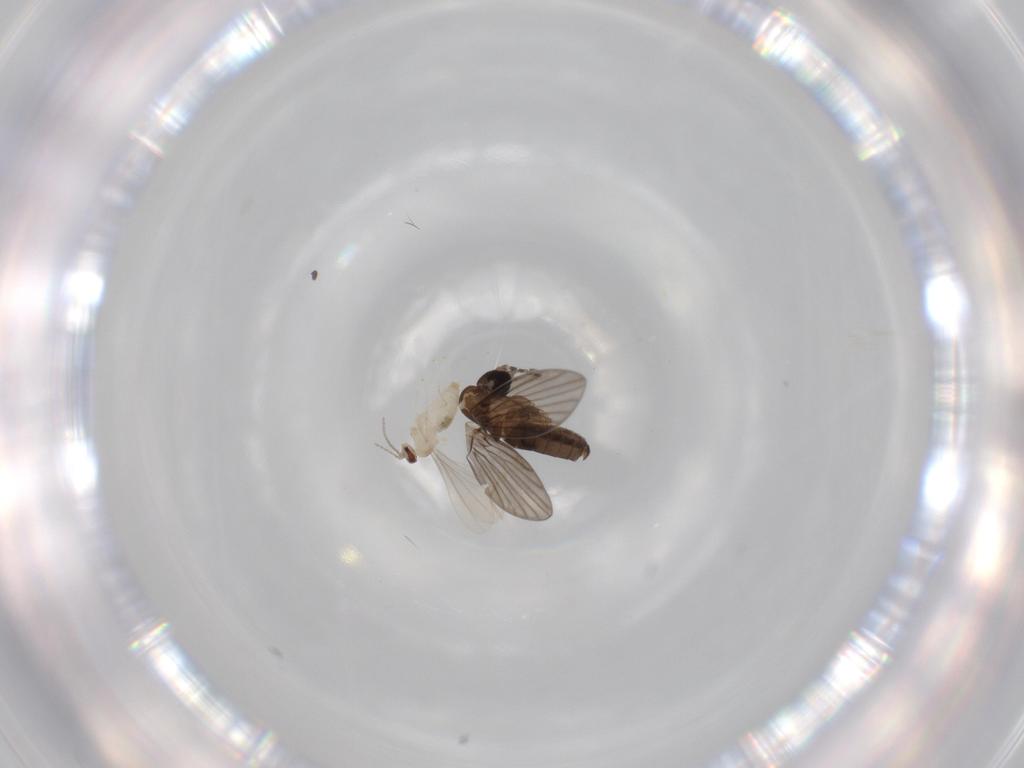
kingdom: Animalia
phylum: Arthropoda
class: Insecta
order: Diptera
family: Cecidomyiidae
